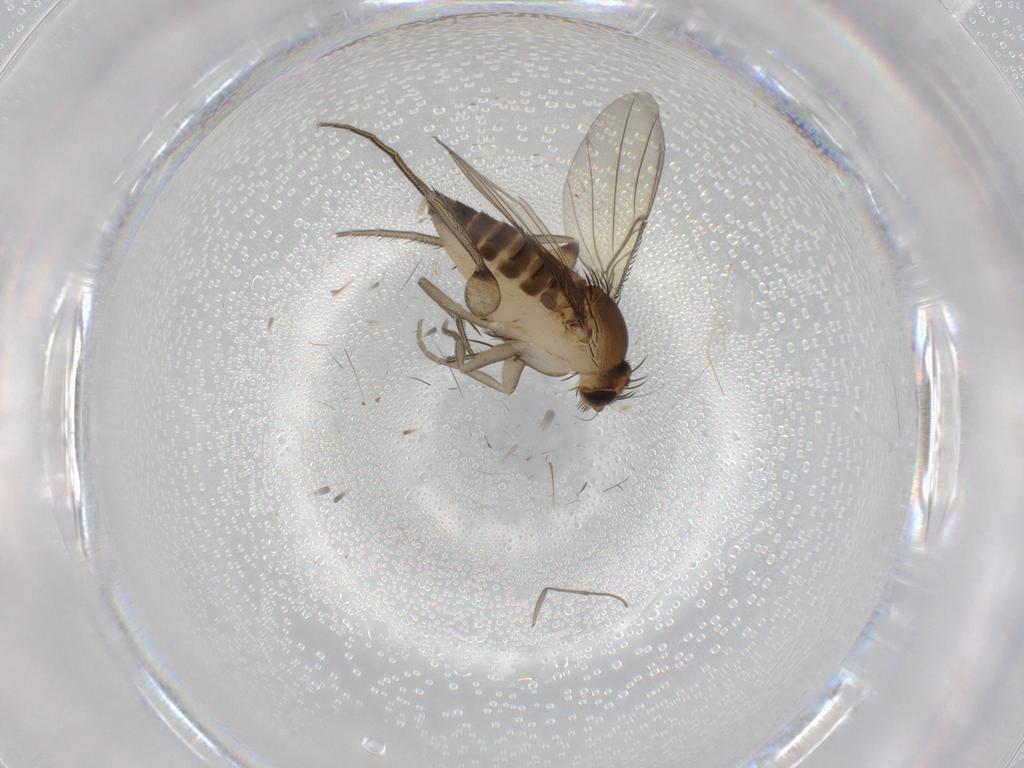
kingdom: Animalia
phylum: Arthropoda
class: Insecta
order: Diptera
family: Phoridae
